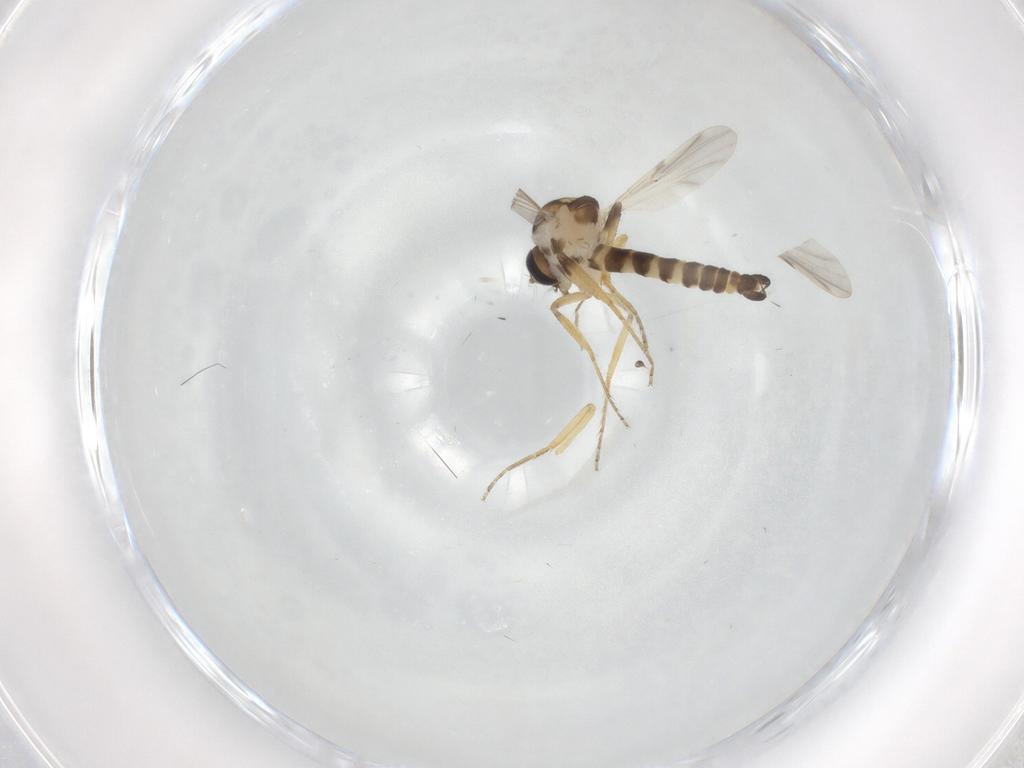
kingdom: Animalia
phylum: Arthropoda
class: Insecta
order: Diptera
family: Ceratopogonidae
